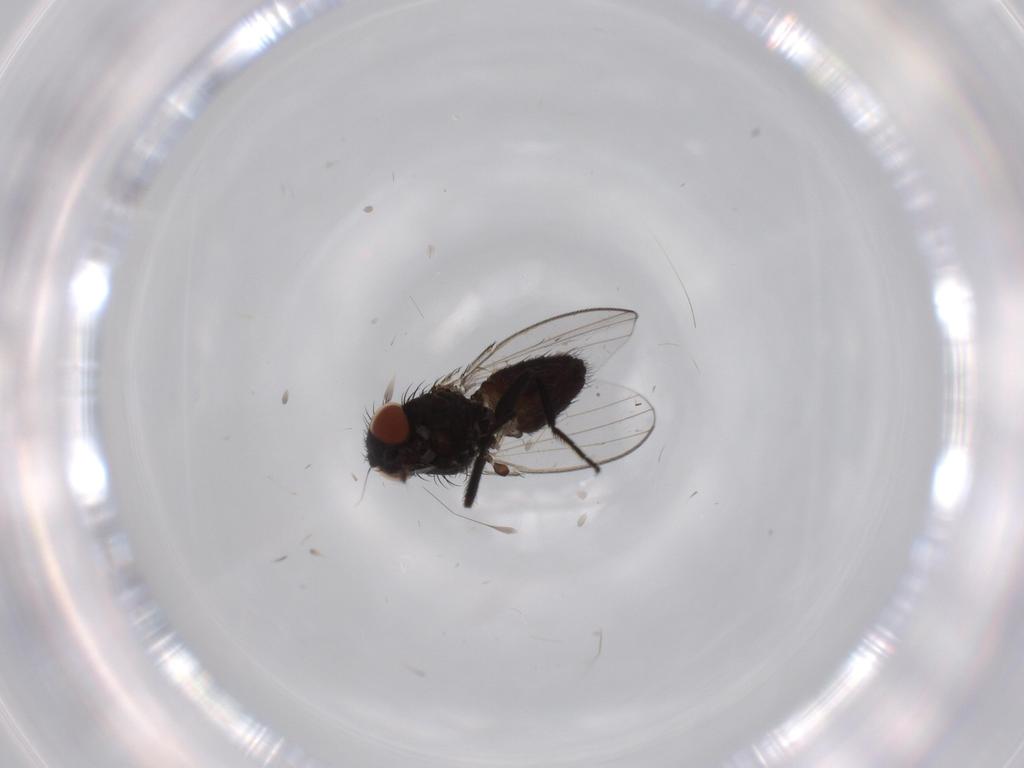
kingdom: Animalia
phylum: Arthropoda
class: Insecta
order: Diptera
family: Milichiidae
